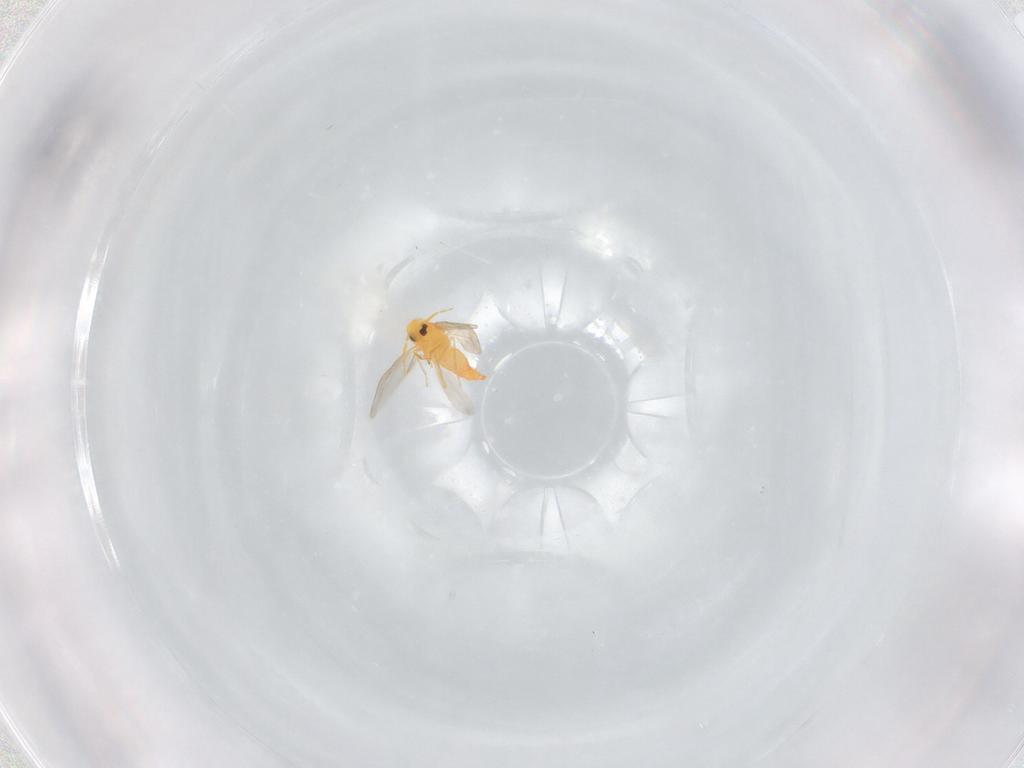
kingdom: Animalia
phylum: Arthropoda
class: Insecta
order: Hemiptera
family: Aleyrodidae
